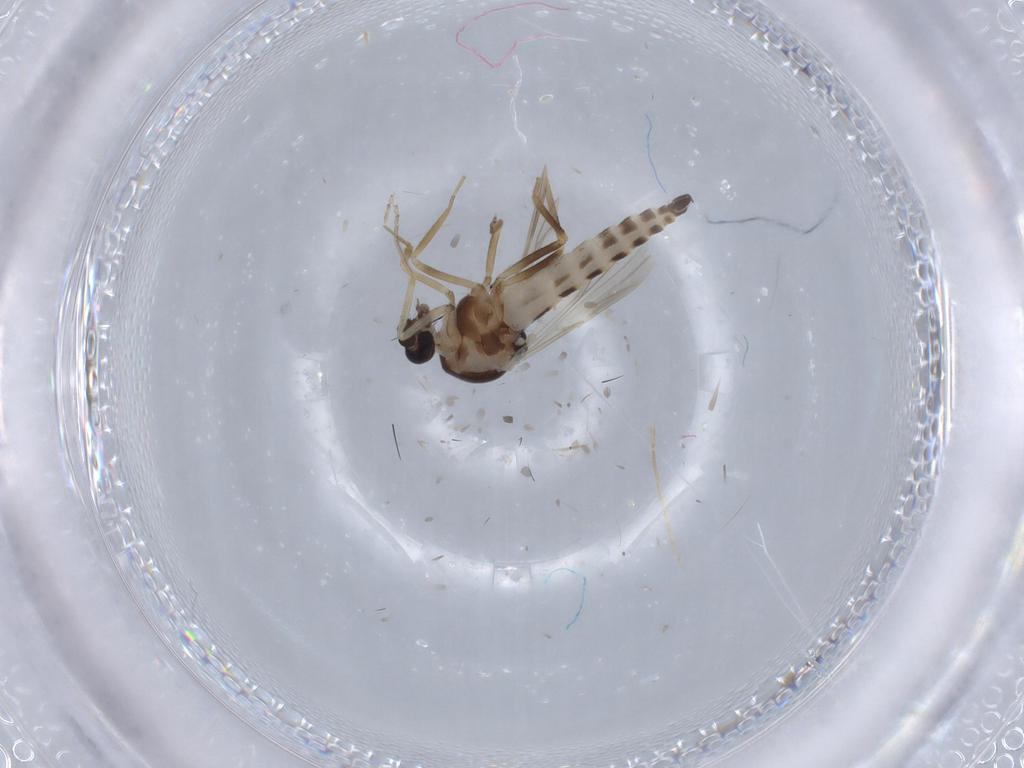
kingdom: Animalia
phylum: Arthropoda
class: Insecta
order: Diptera
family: Ceratopogonidae
